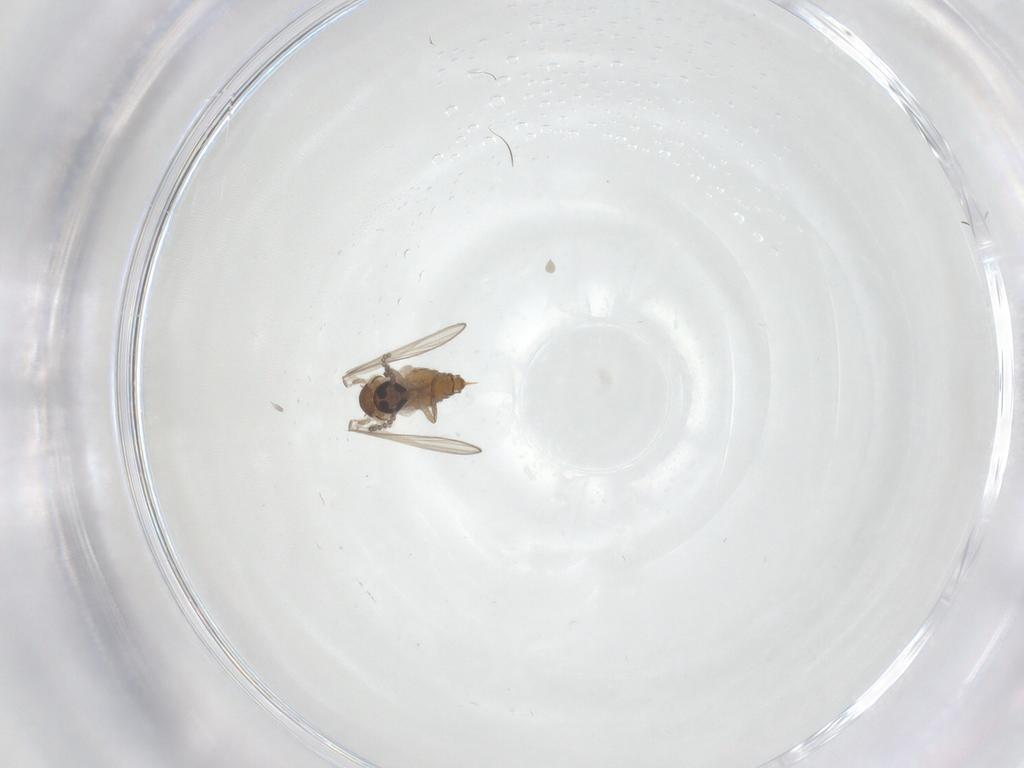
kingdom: Animalia
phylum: Arthropoda
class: Insecta
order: Diptera
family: Psychodidae
